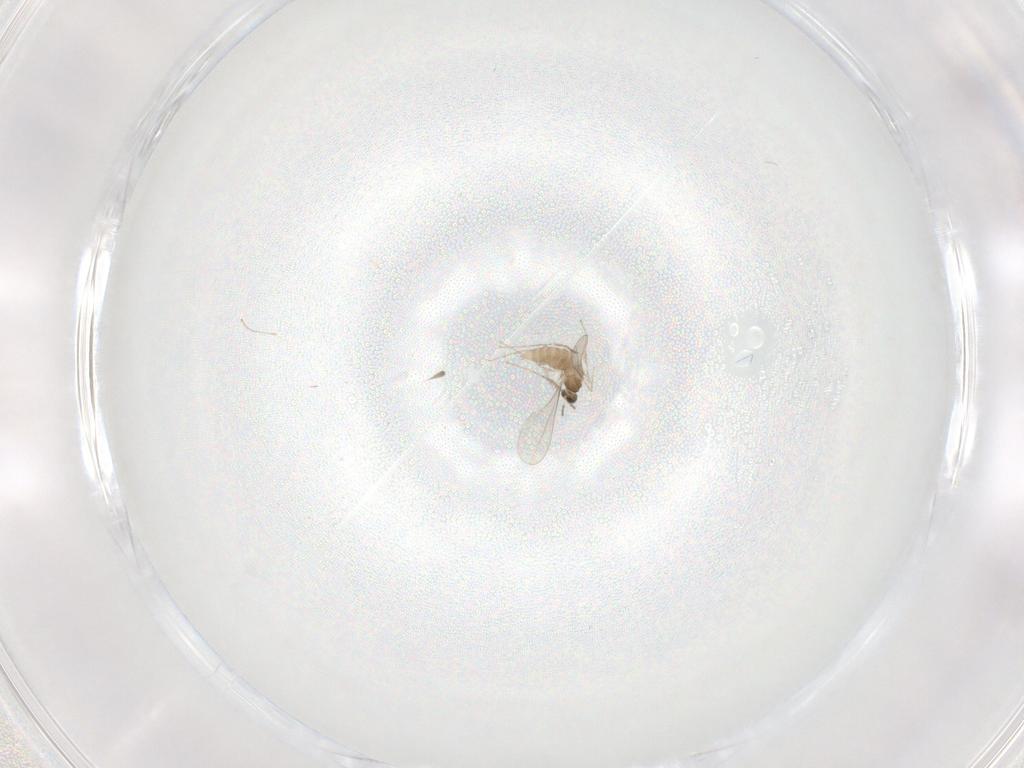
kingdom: Animalia
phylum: Arthropoda
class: Insecta
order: Diptera
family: Cecidomyiidae
